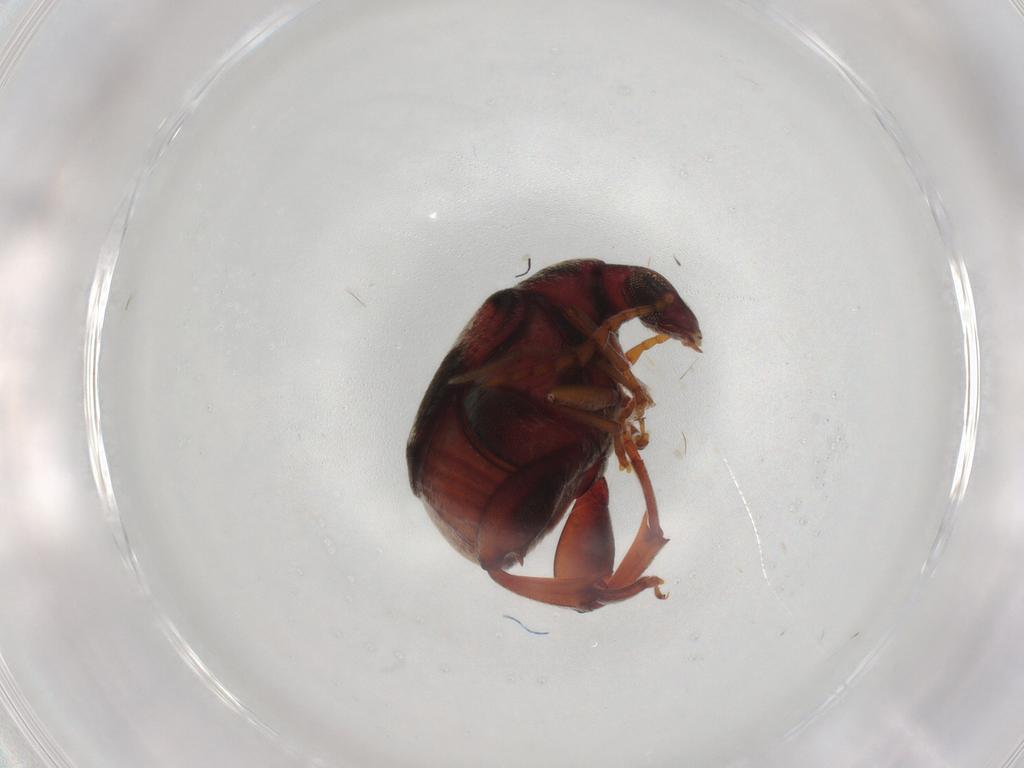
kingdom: Animalia
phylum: Arthropoda
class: Insecta
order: Coleoptera
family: Chrysomelidae
